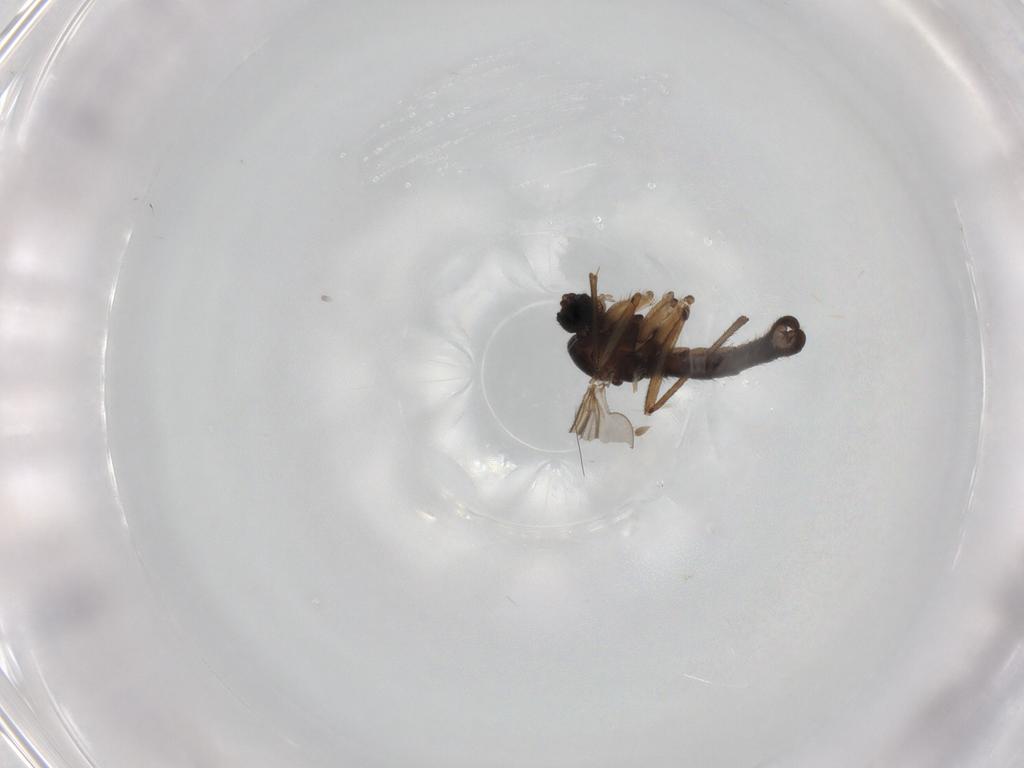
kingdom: Animalia
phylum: Arthropoda
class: Insecta
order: Diptera
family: Sciaridae
